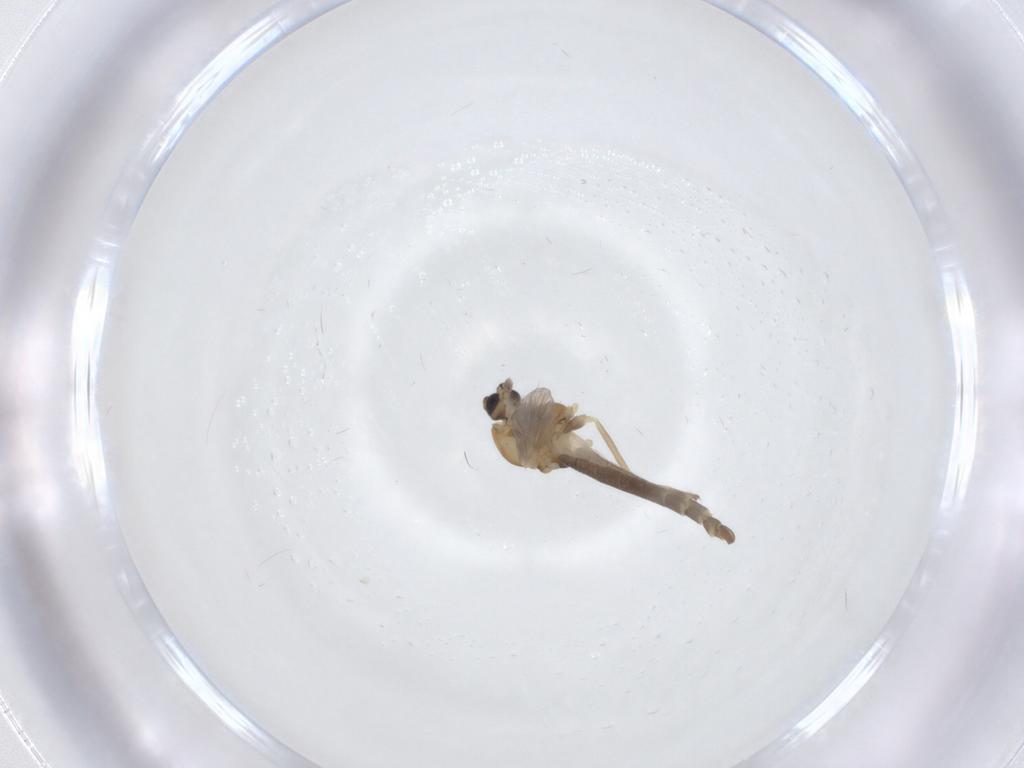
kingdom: Animalia
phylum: Arthropoda
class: Insecta
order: Diptera
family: Chironomidae
